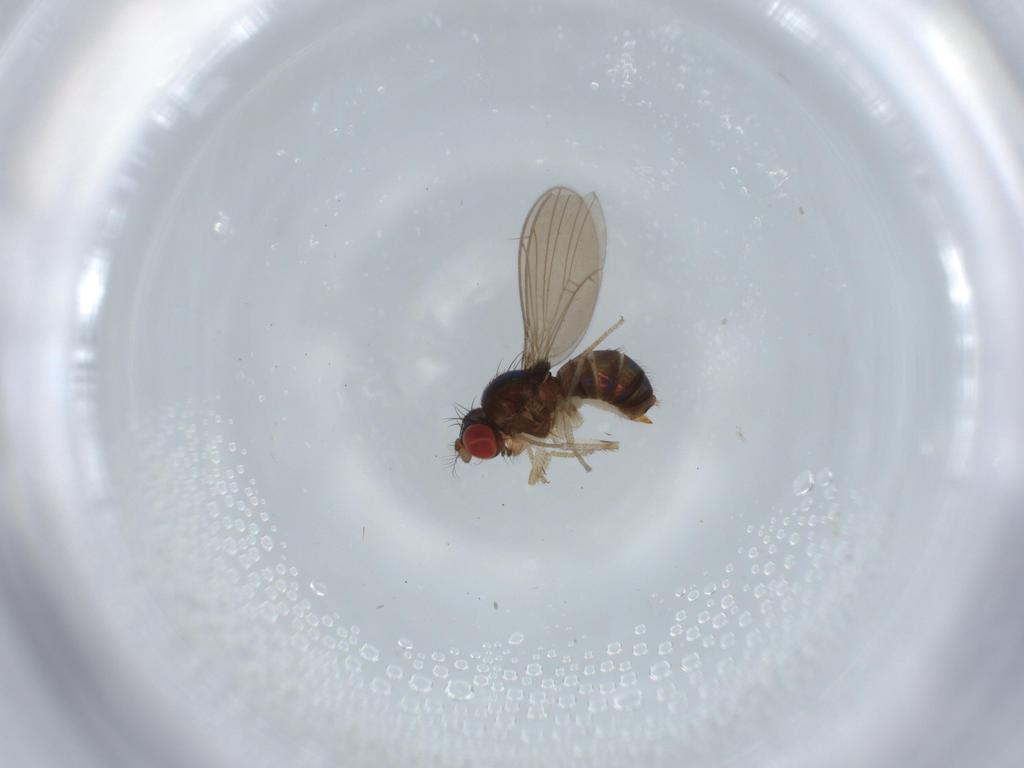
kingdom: Animalia
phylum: Arthropoda
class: Insecta
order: Diptera
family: Drosophilidae
